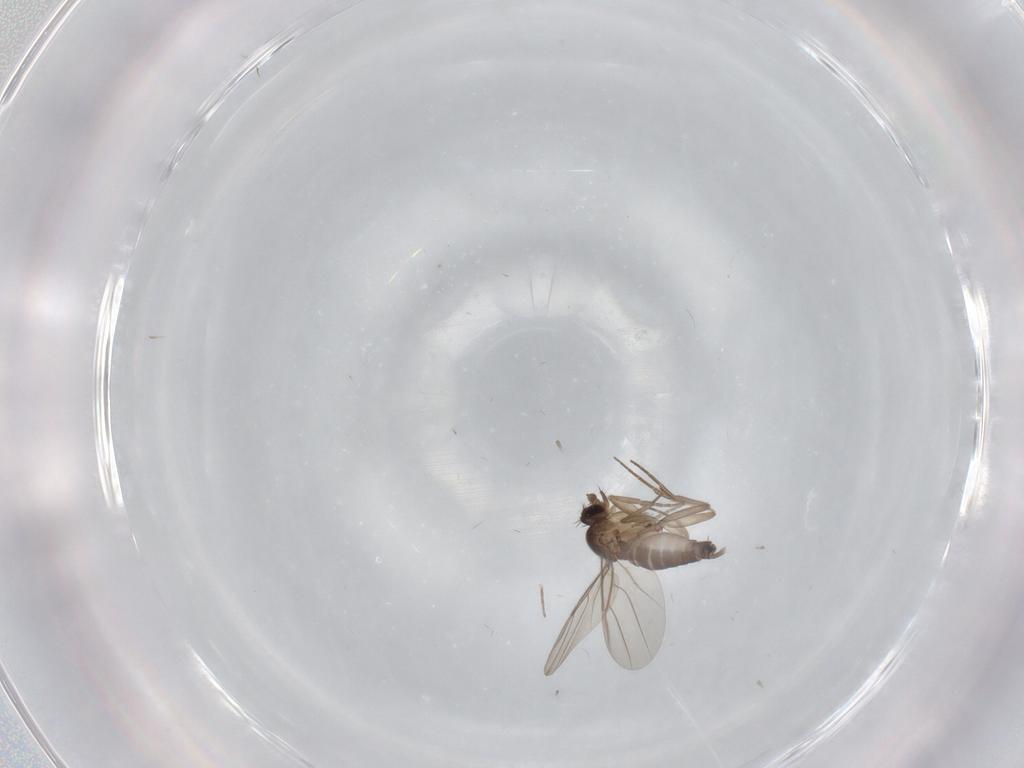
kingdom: Animalia
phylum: Arthropoda
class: Insecta
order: Diptera
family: Phoridae
